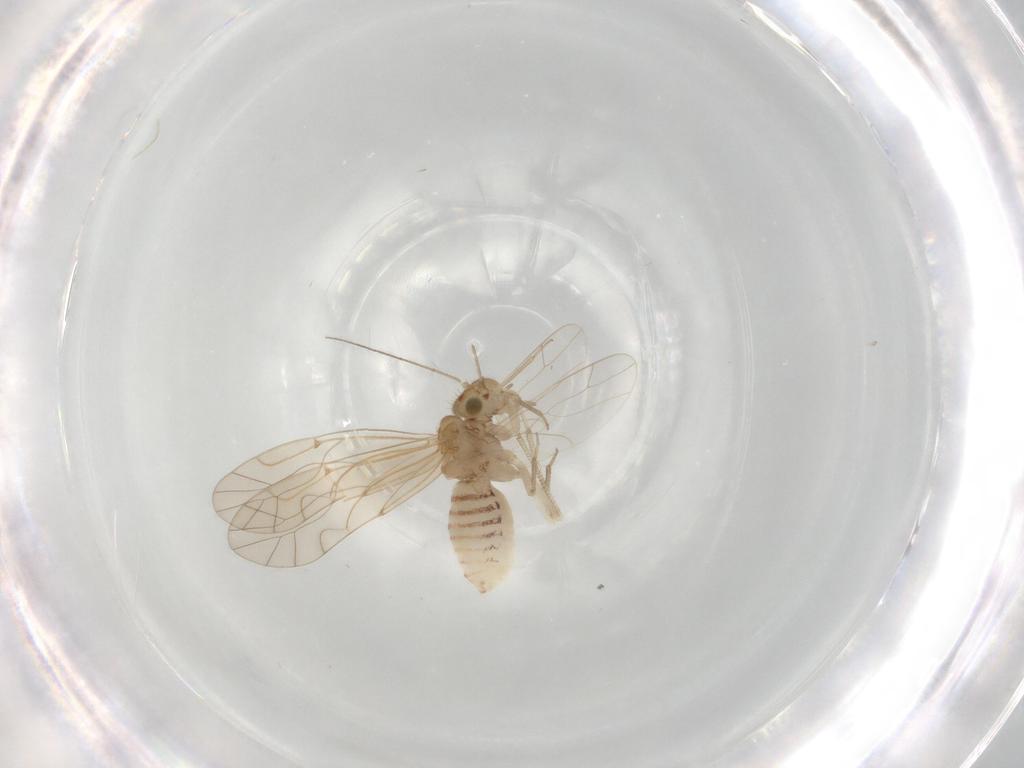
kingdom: Animalia
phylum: Arthropoda
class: Insecta
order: Psocodea
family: Lachesillidae
